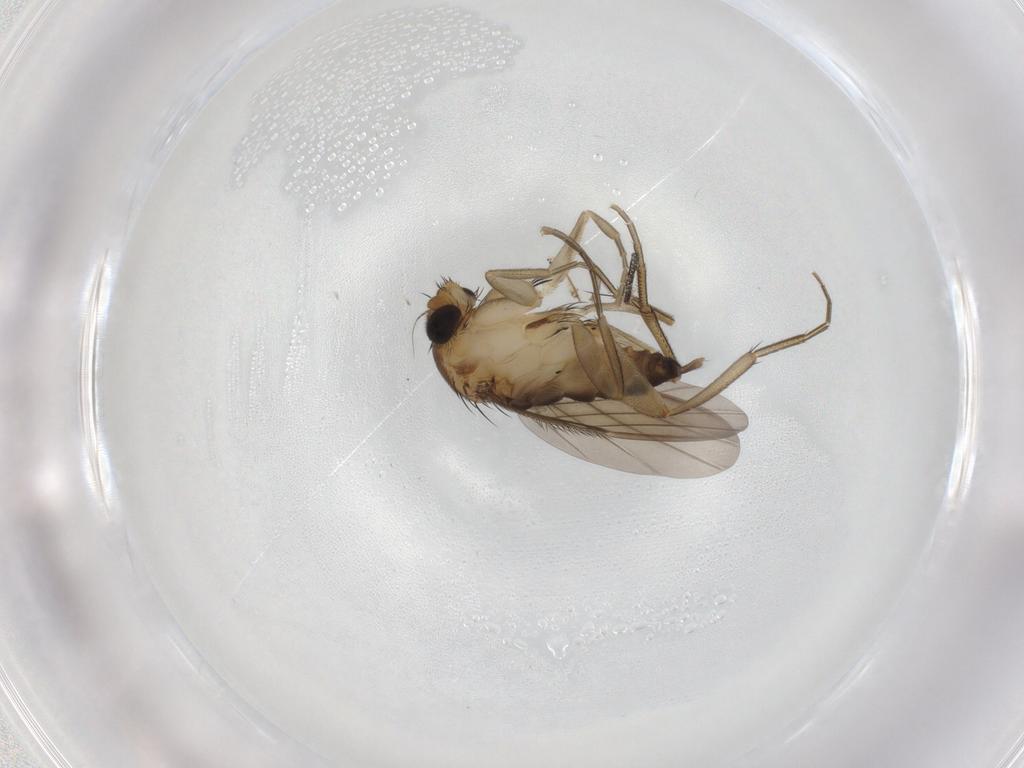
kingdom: Animalia
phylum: Arthropoda
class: Insecta
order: Diptera
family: Phoridae
